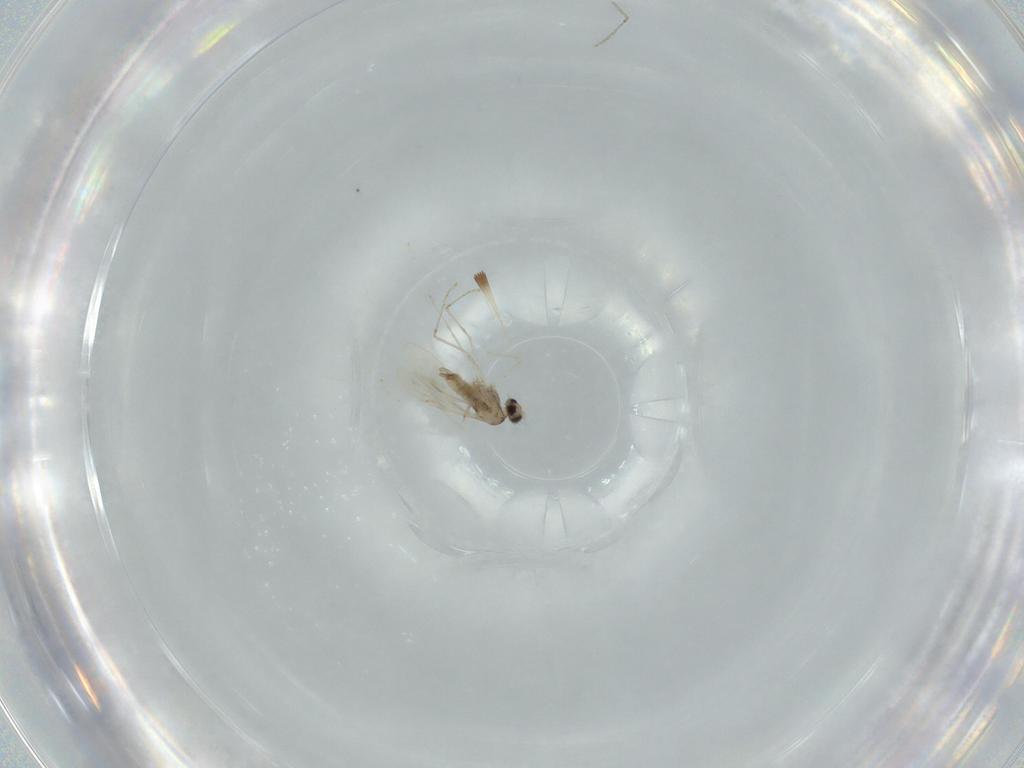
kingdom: Animalia
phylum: Arthropoda
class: Insecta
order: Diptera
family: Cecidomyiidae
